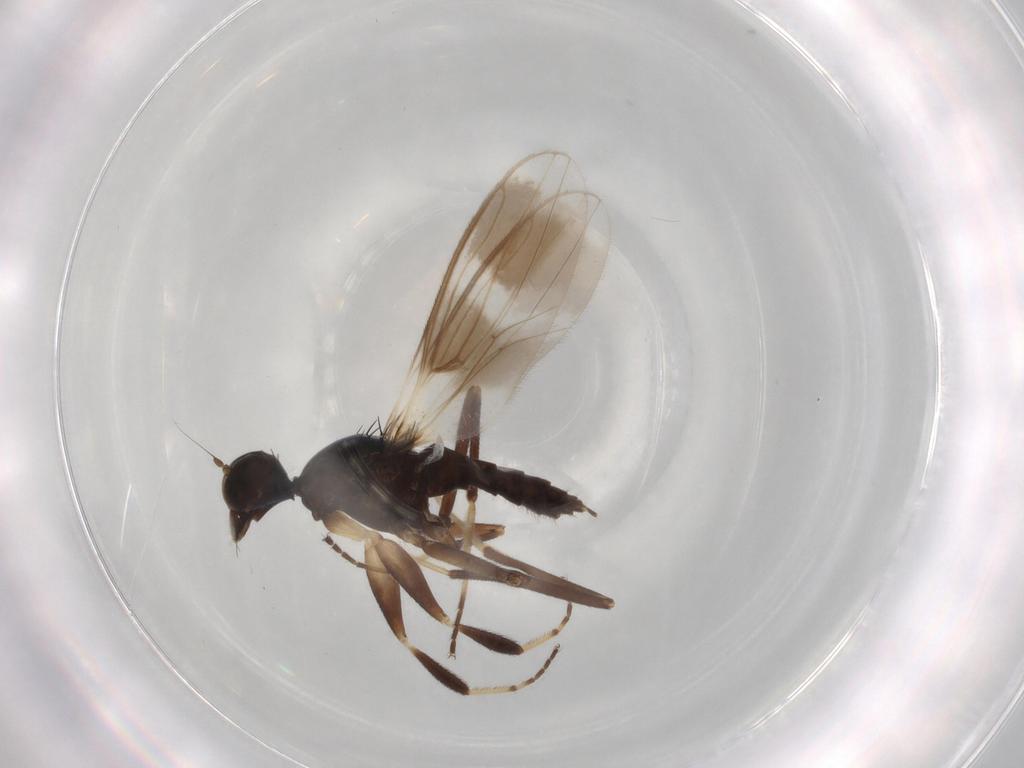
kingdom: Animalia
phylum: Arthropoda
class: Insecta
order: Diptera
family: Hybotidae
